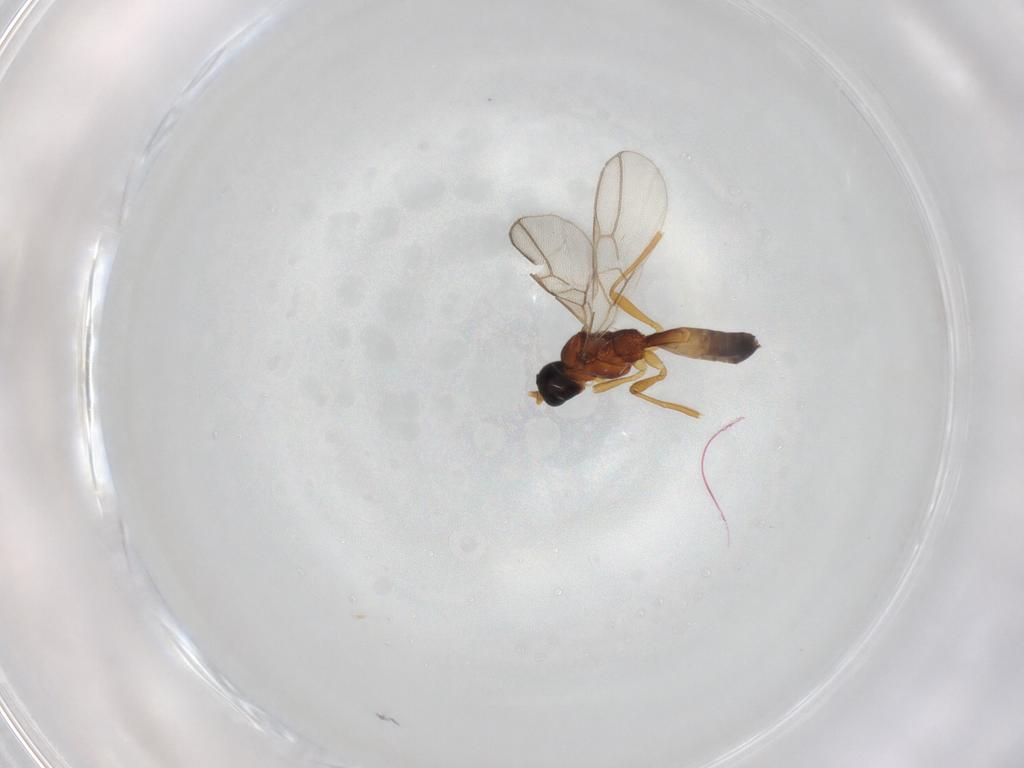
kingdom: Animalia
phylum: Arthropoda
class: Insecta
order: Hymenoptera
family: Braconidae
